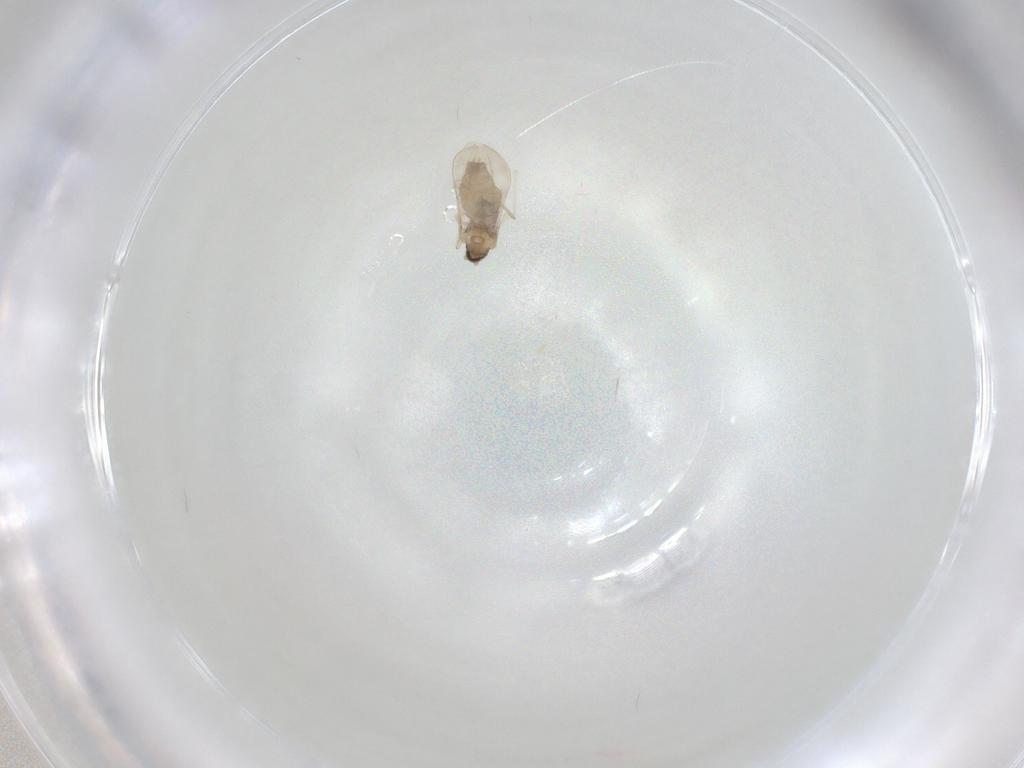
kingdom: Animalia
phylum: Arthropoda
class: Insecta
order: Diptera
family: Cecidomyiidae
